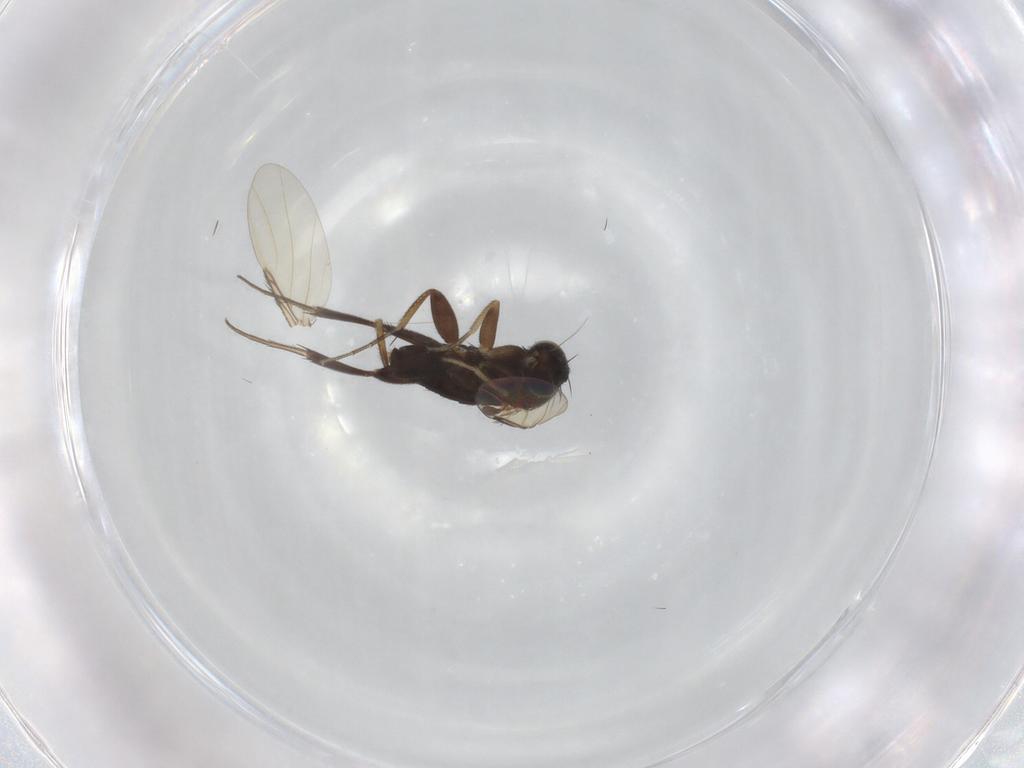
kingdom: Animalia
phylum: Arthropoda
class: Insecta
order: Diptera
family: Phoridae
